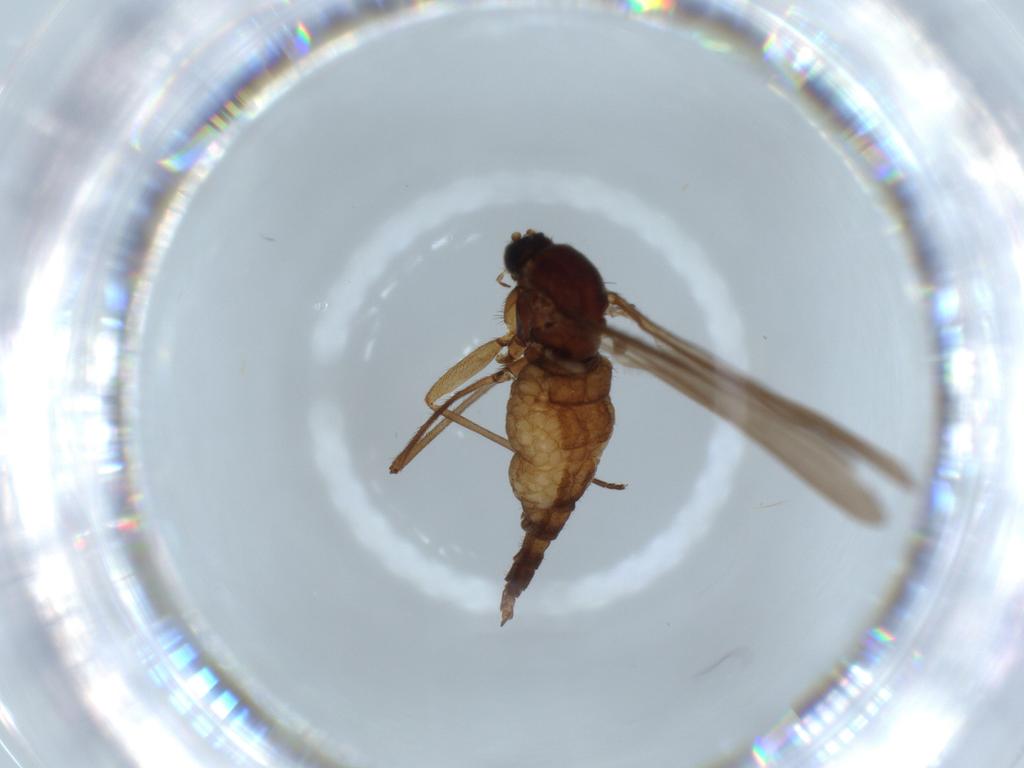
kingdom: Animalia
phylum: Arthropoda
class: Insecta
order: Diptera
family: Sciaridae
